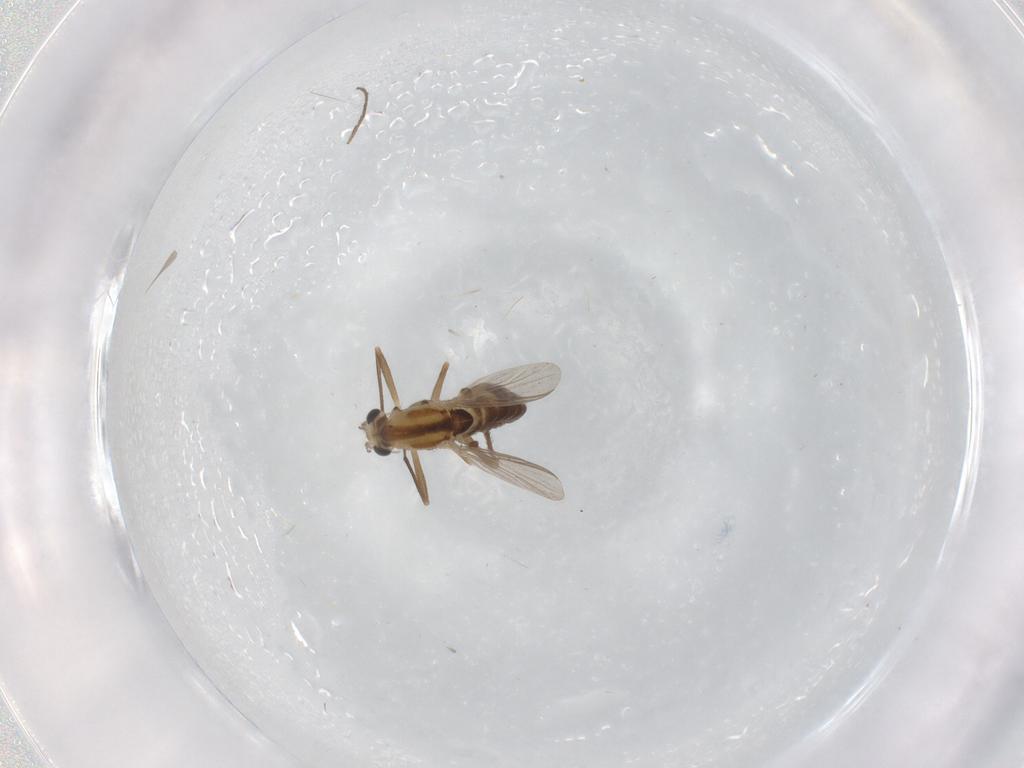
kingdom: Animalia
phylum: Arthropoda
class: Insecta
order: Diptera
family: Chironomidae
